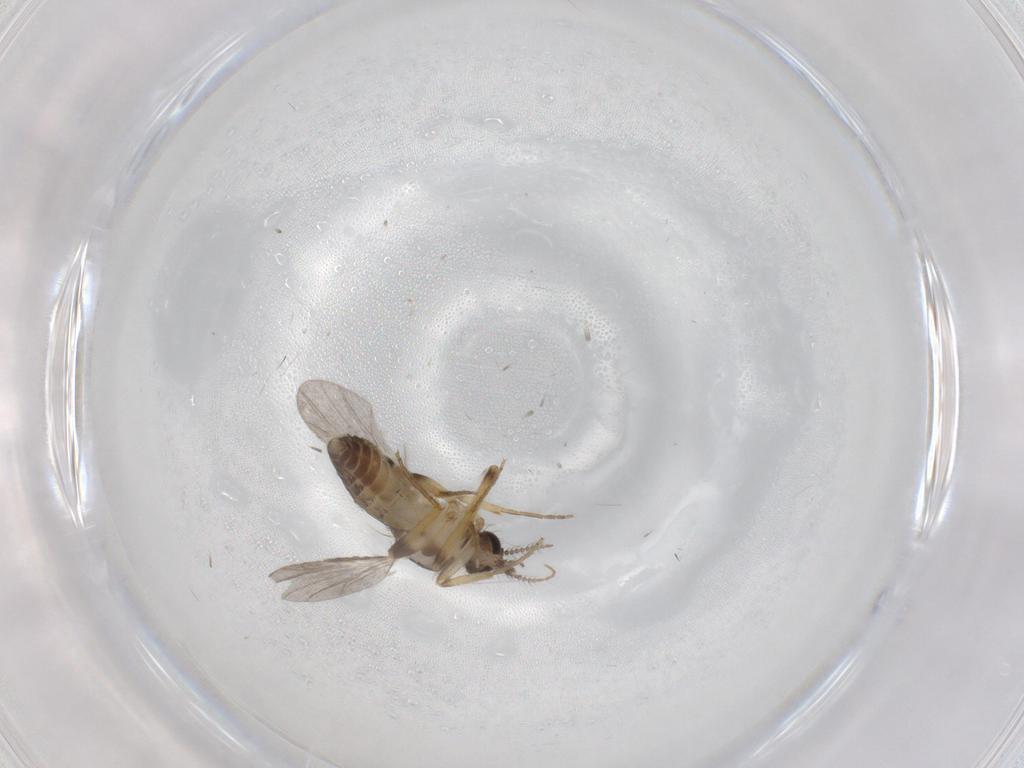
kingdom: Animalia
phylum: Arthropoda
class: Insecta
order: Diptera
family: Ceratopogonidae
